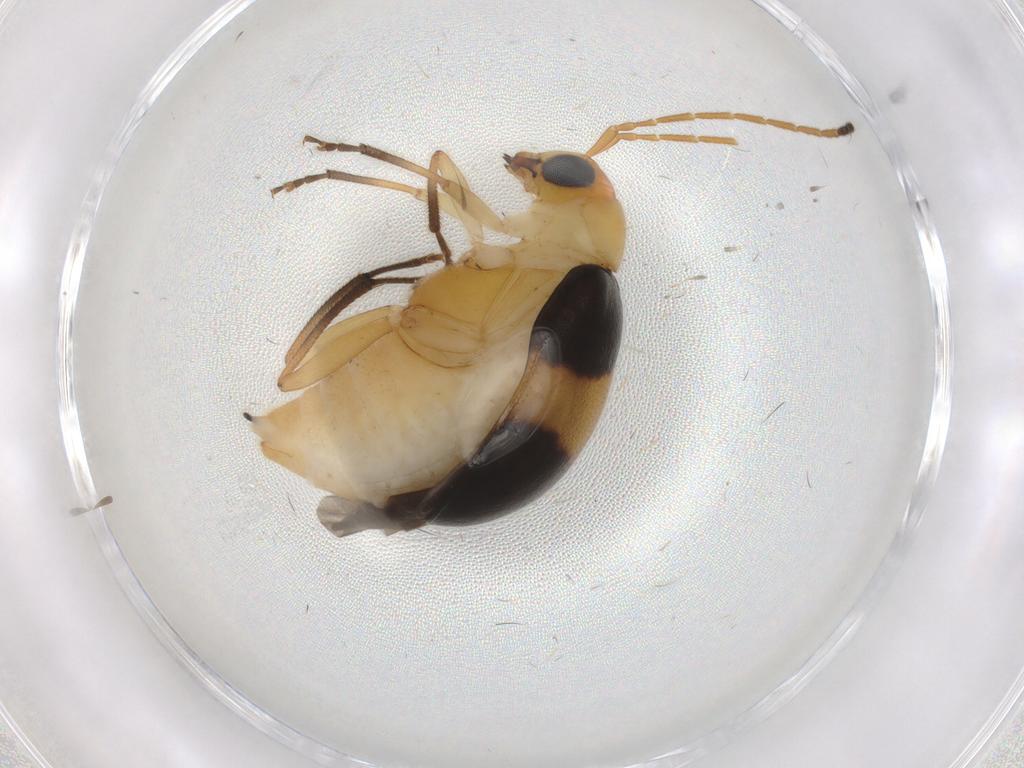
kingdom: Animalia
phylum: Arthropoda
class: Insecta
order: Coleoptera
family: Chrysomelidae
